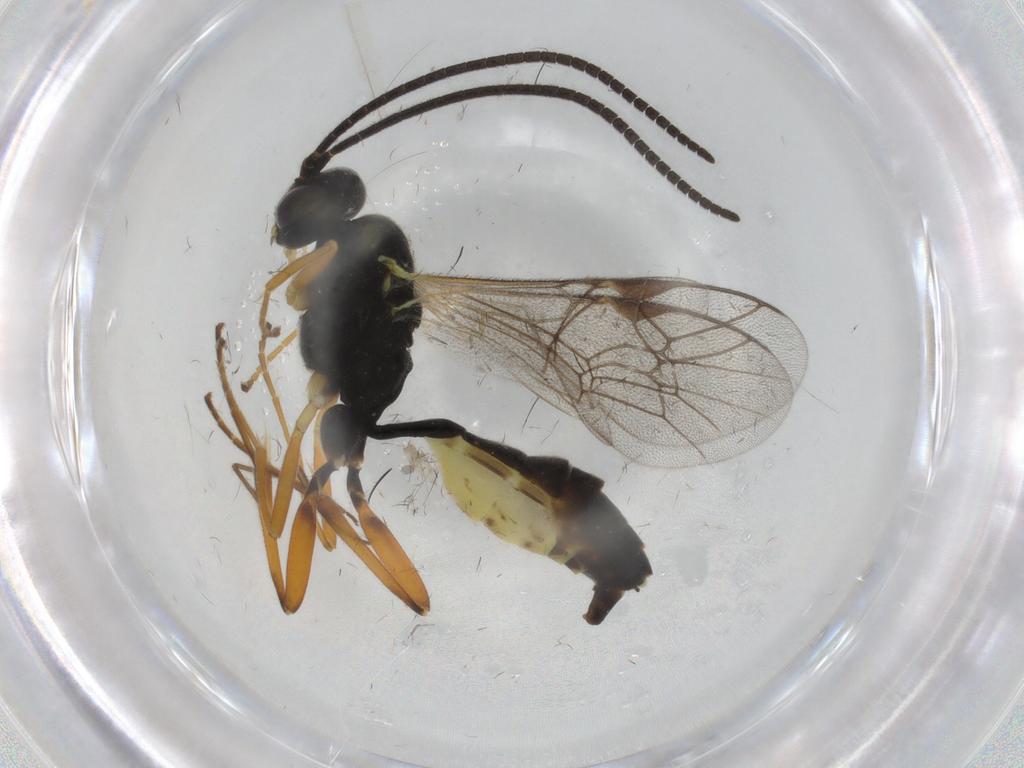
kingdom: Animalia
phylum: Arthropoda
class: Insecta
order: Hymenoptera
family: Ichneumonidae
